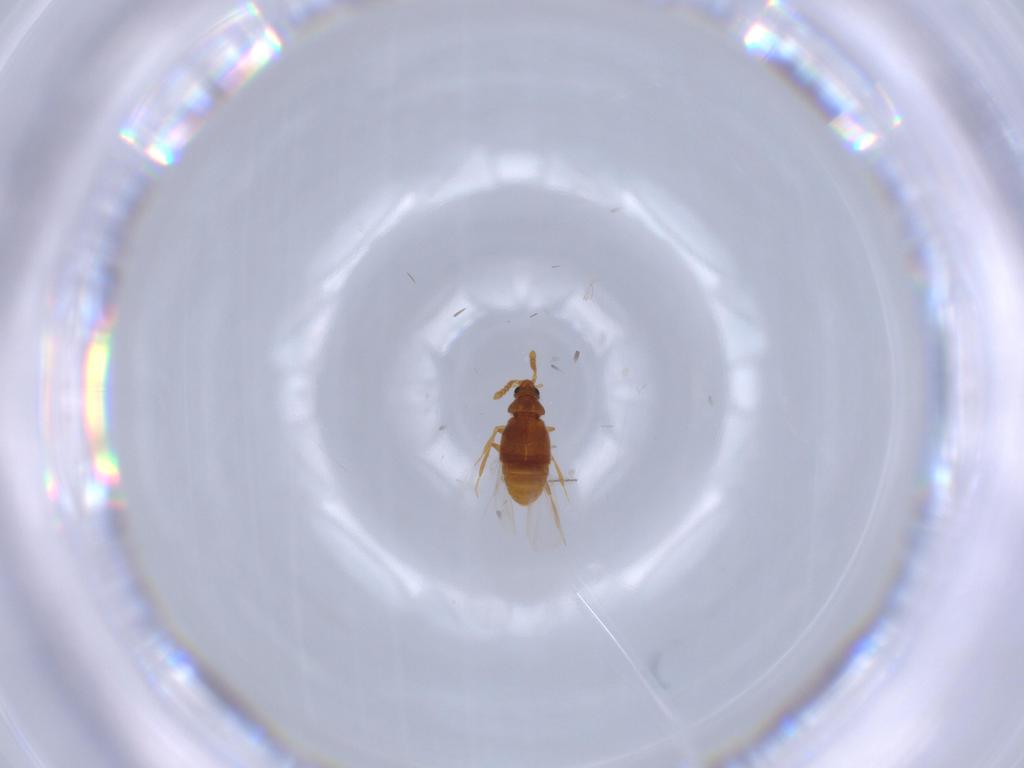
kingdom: Animalia
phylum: Arthropoda
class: Insecta
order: Coleoptera
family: Staphylinidae
